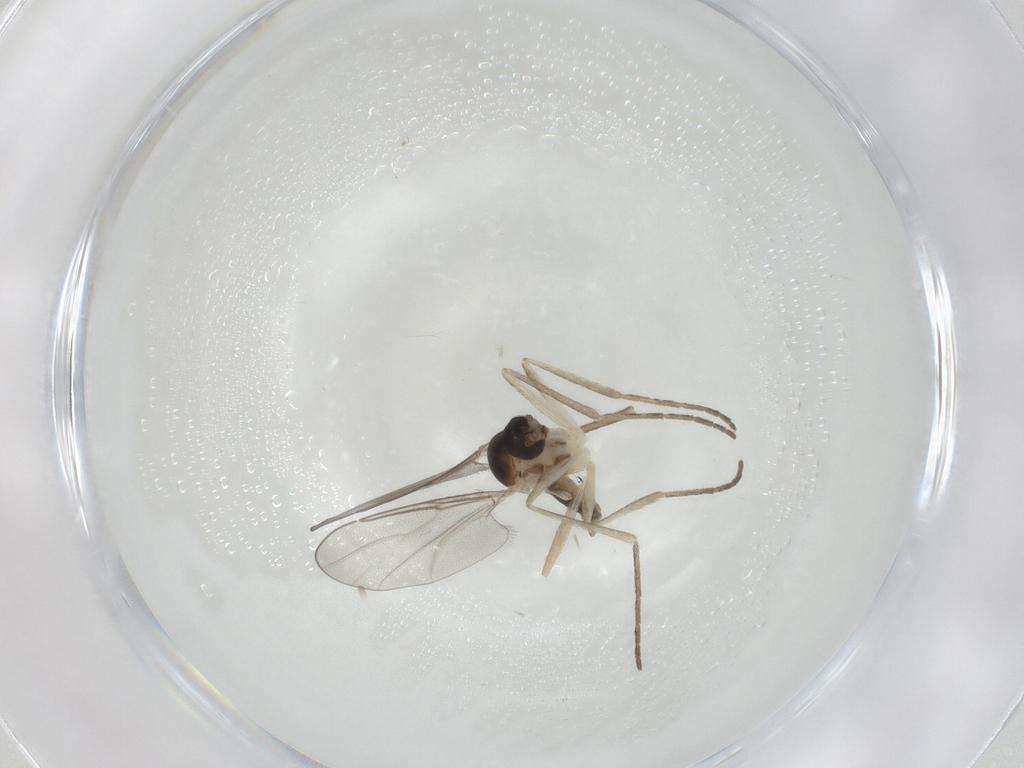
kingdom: Animalia
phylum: Arthropoda
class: Insecta
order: Diptera
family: Cecidomyiidae
